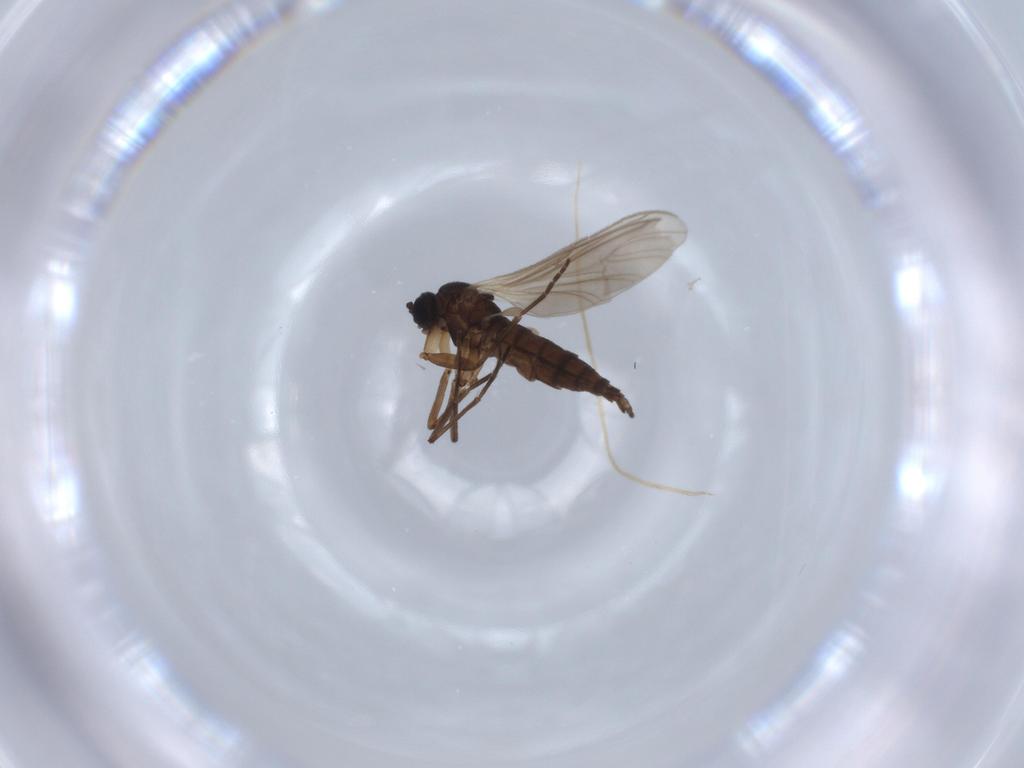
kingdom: Animalia
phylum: Arthropoda
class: Insecta
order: Diptera
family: Sciaridae
